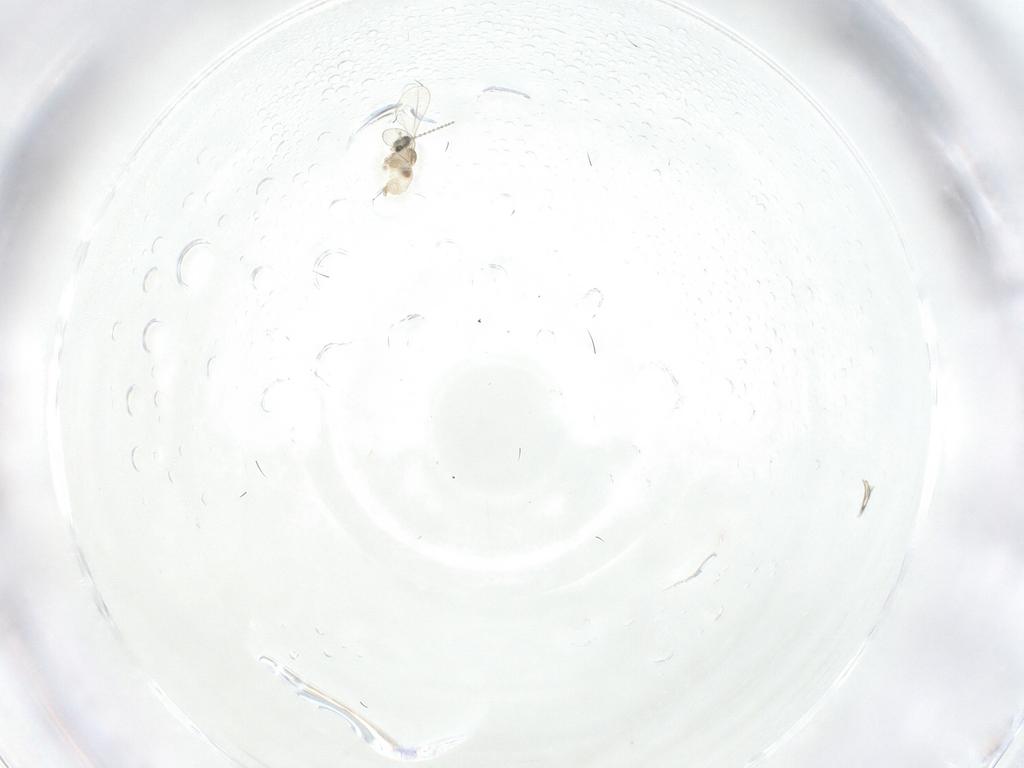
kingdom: Animalia
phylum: Arthropoda
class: Insecta
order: Diptera
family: Cecidomyiidae
